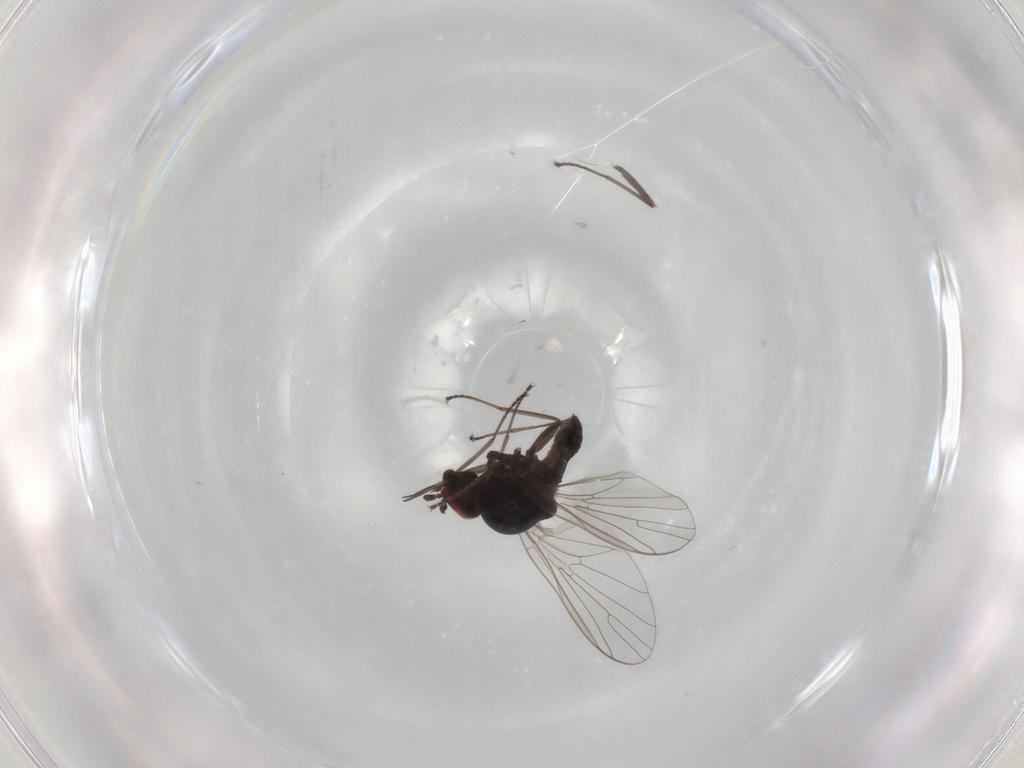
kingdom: Animalia
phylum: Arthropoda
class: Insecta
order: Diptera
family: Bombyliidae
